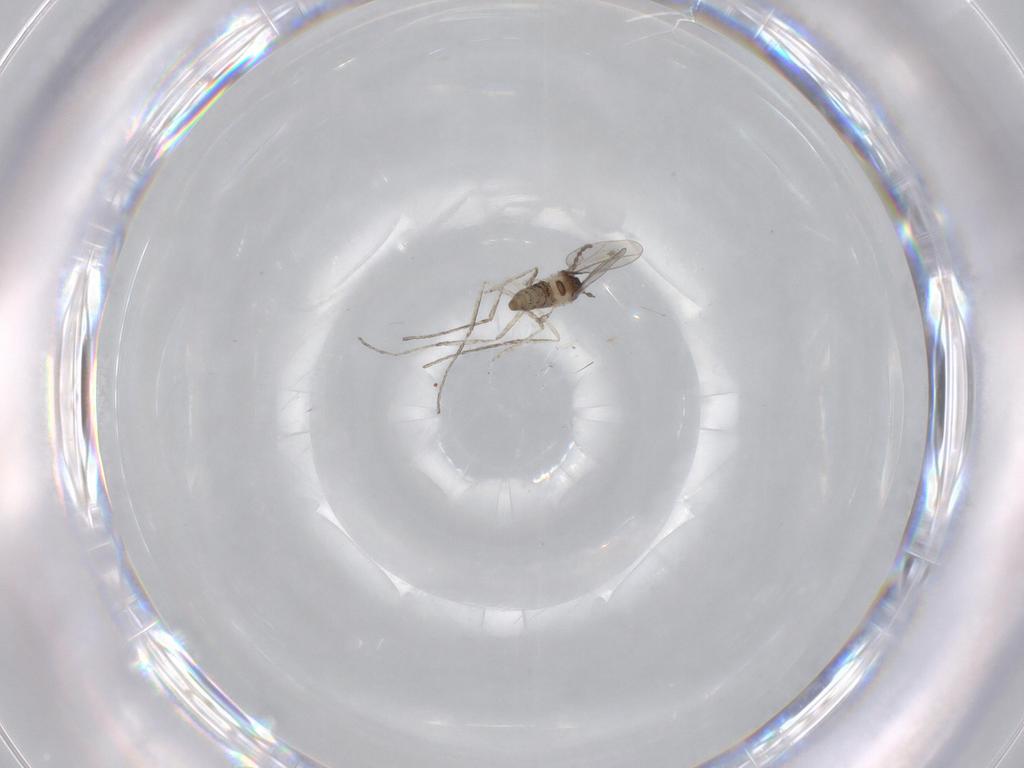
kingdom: Animalia
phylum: Arthropoda
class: Insecta
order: Diptera
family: Cecidomyiidae
